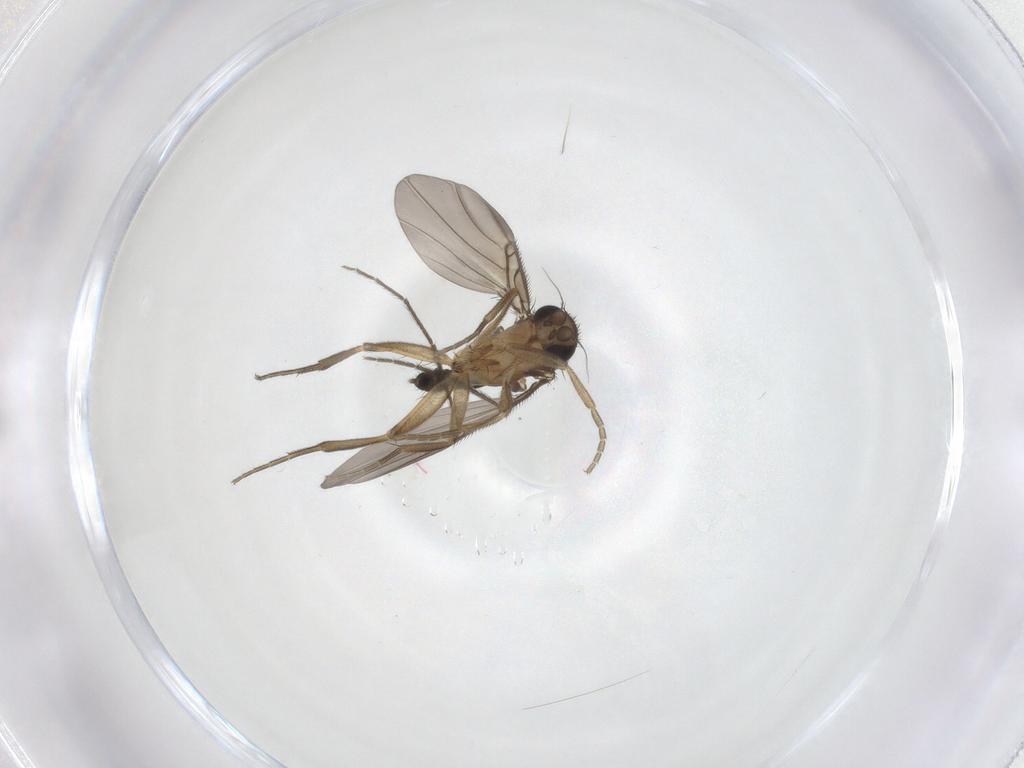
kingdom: Animalia
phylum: Arthropoda
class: Insecta
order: Diptera
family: Chironomidae
